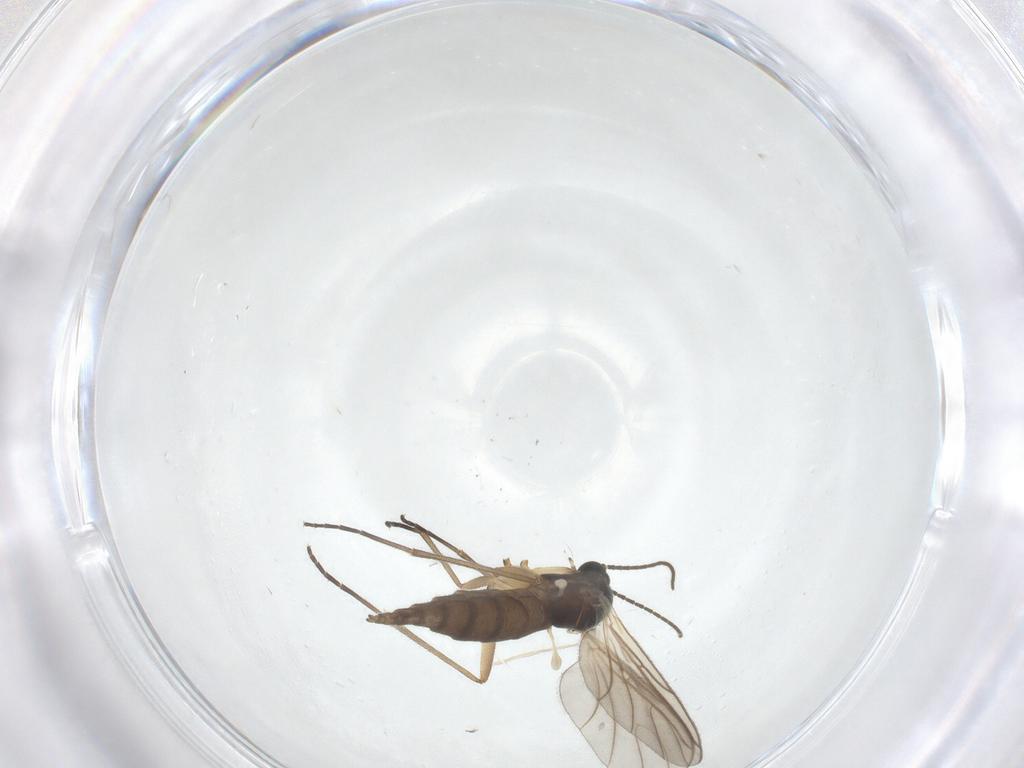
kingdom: Animalia
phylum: Arthropoda
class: Insecta
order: Diptera
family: Sciaridae
